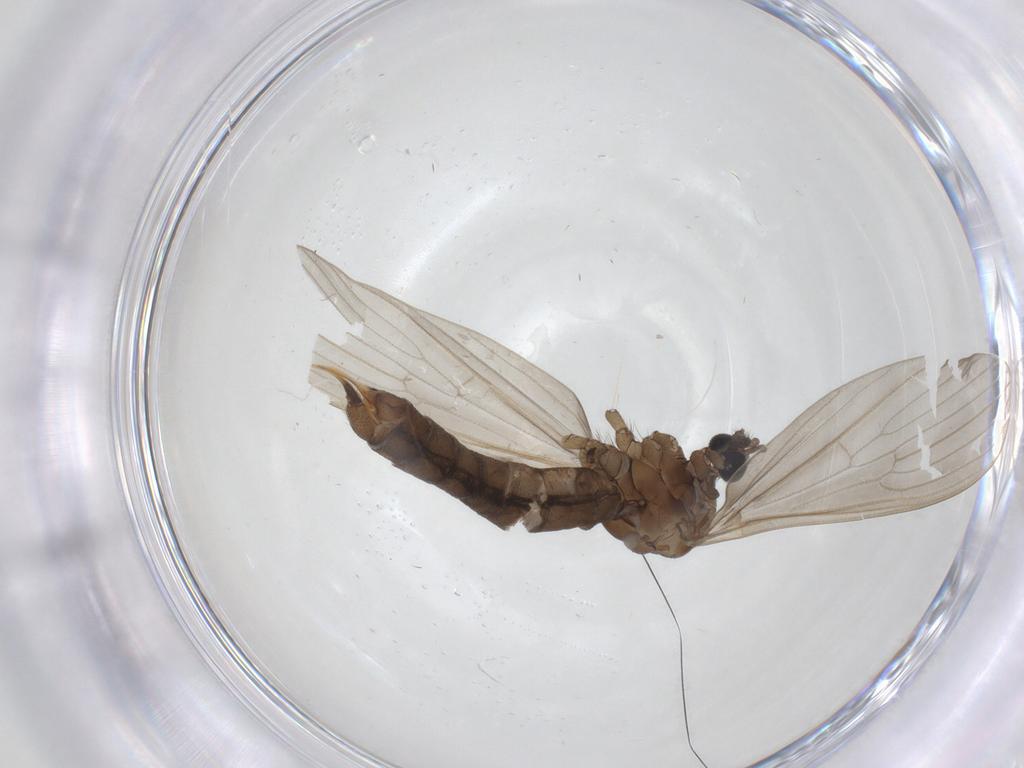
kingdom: Animalia
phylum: Arthropoda
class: Insecta
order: Diptera
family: Limoniidae
